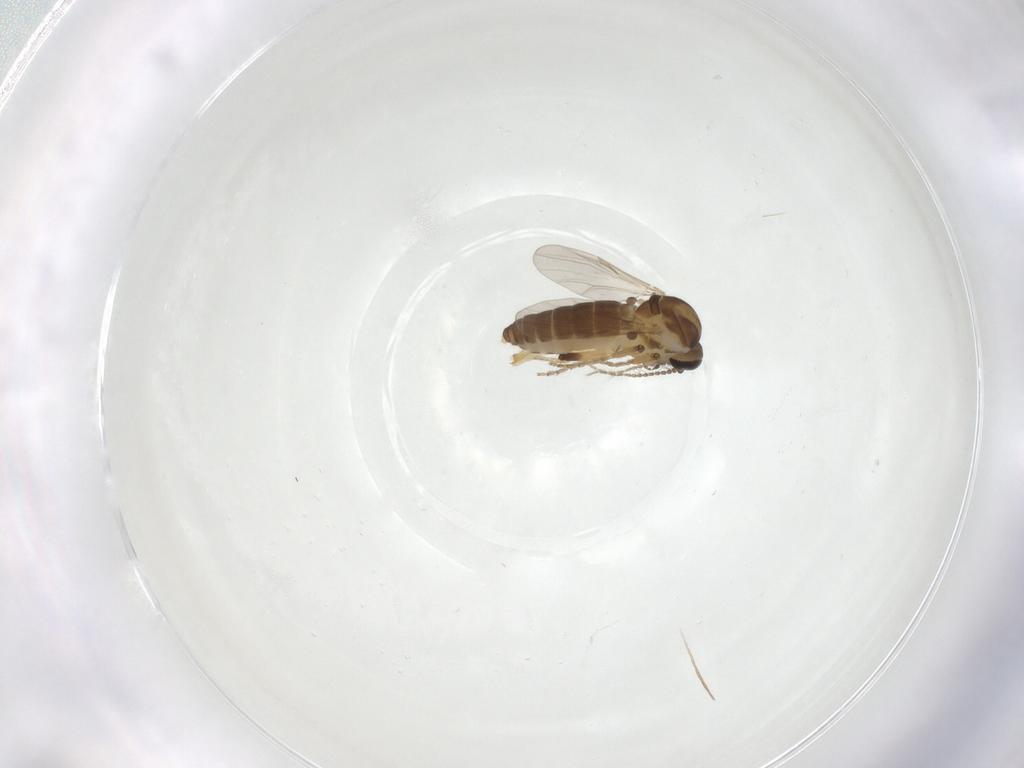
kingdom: Animalia
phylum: Arthropoda
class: Insecta
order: Diptera
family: Ceratopogonidae
